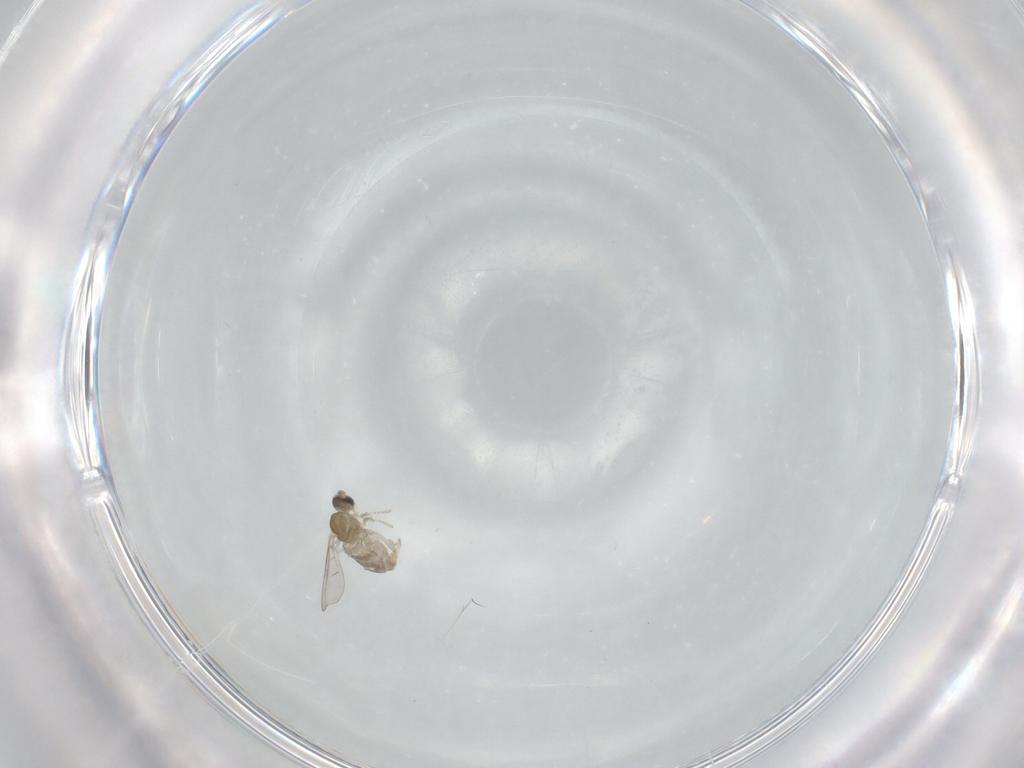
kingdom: Animalia
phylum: Arthropoda
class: Insecta
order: Diptera
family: Cecidomyiidae
